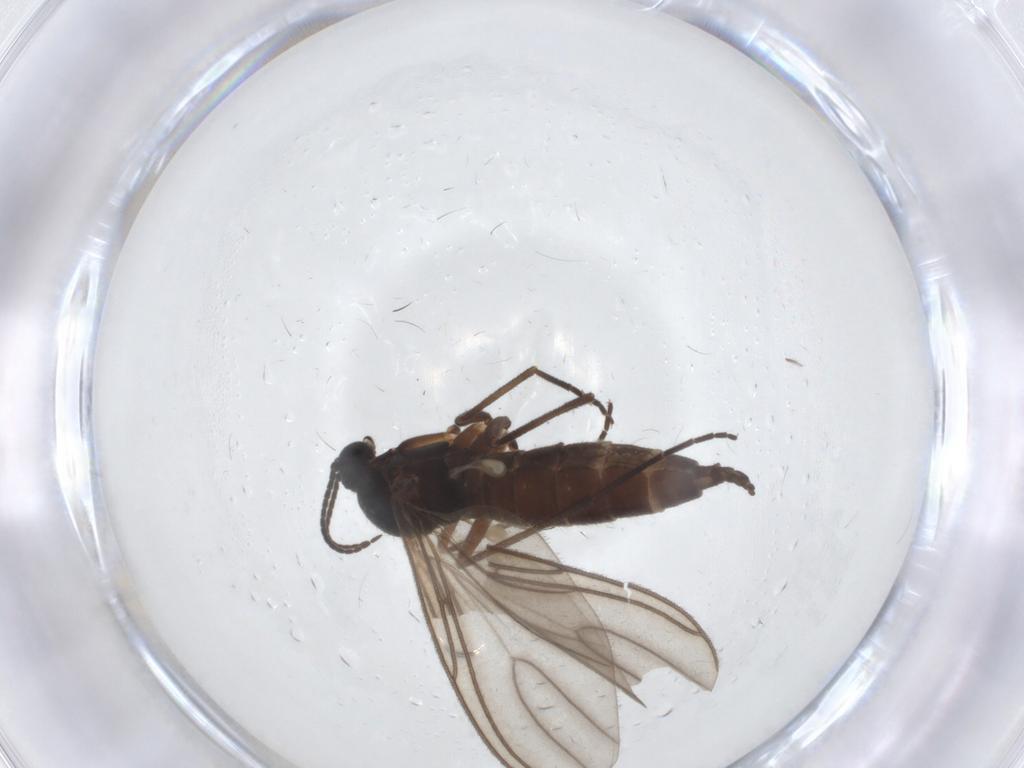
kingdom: Animalia
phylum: Arthropoda
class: Insecta
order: Diptera
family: Sciaridae
